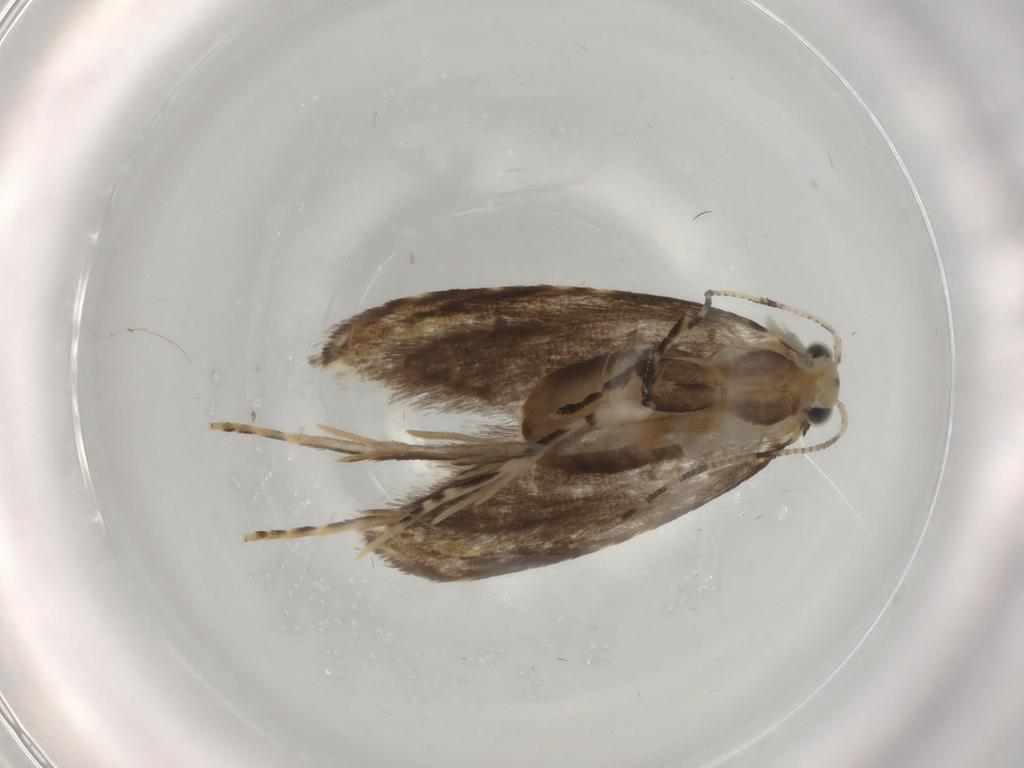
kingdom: Animalia
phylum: Arthropoda
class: Insecta
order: Lepidoptera
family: Tineidae
